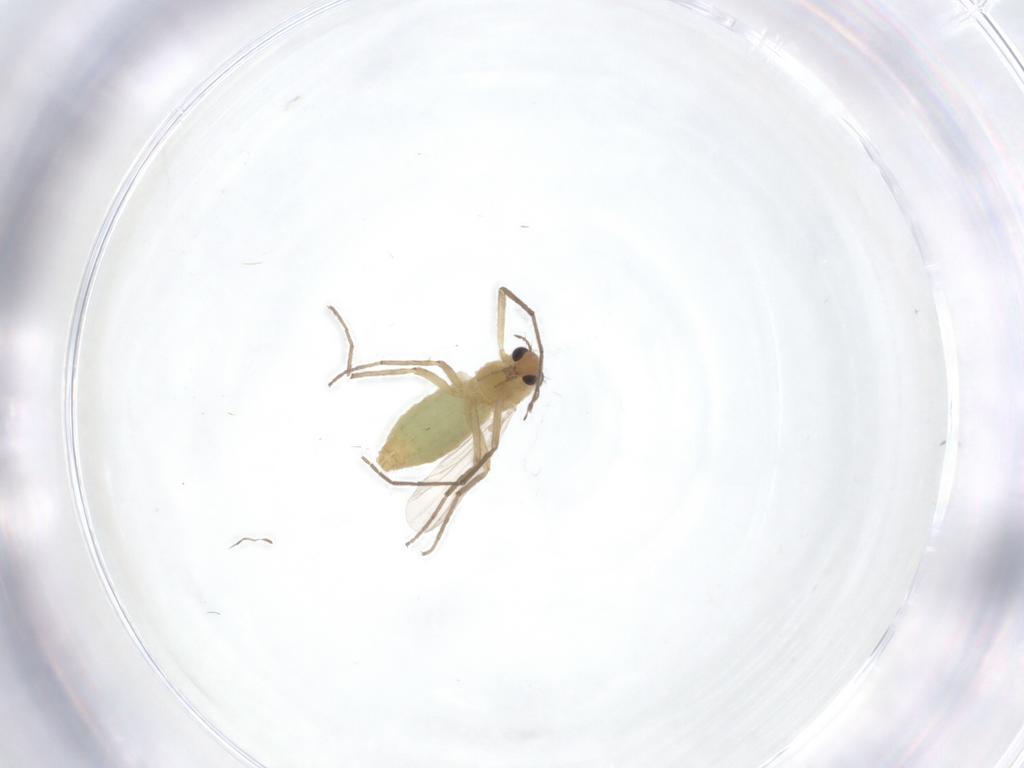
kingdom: Animalia
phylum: Arthropoda
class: Insecta
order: Diptera
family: Chironomidae
